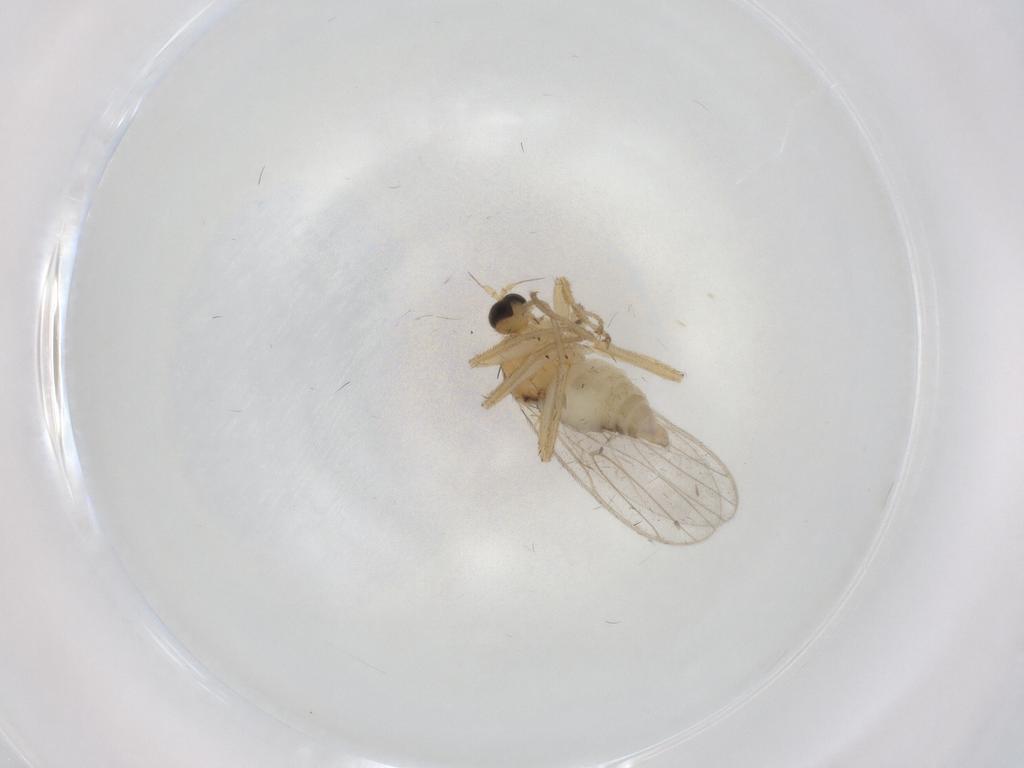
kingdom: Animalia
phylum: Arthropoda
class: Insecta
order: Diptera
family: Hybotidae
